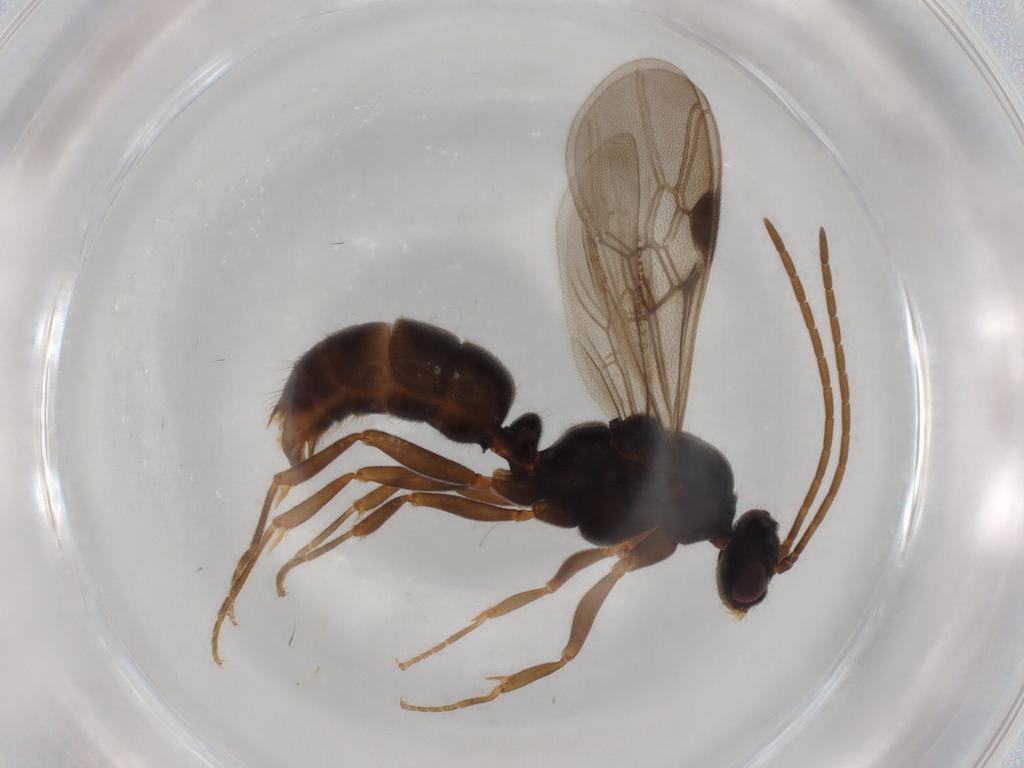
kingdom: Animalia
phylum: Arthropoda
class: Insecta
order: Hymenoptera
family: Formicidae
